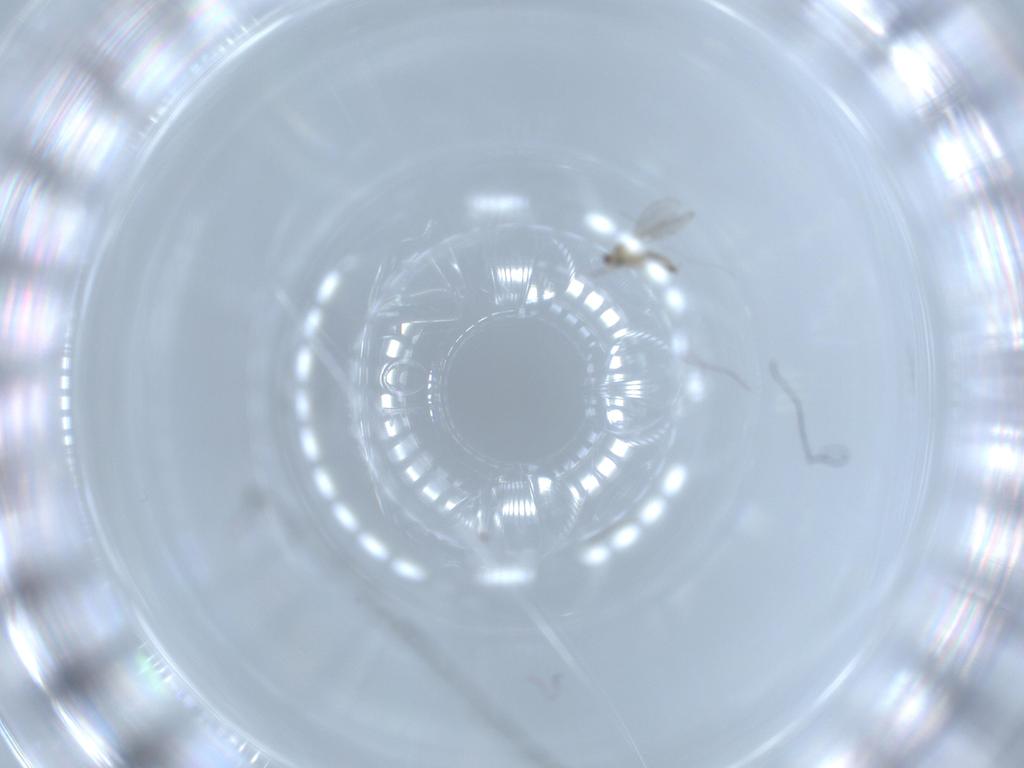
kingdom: Animalia
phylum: Arthropoda
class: Insecta
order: Diptera
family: Cecidomyiidae
